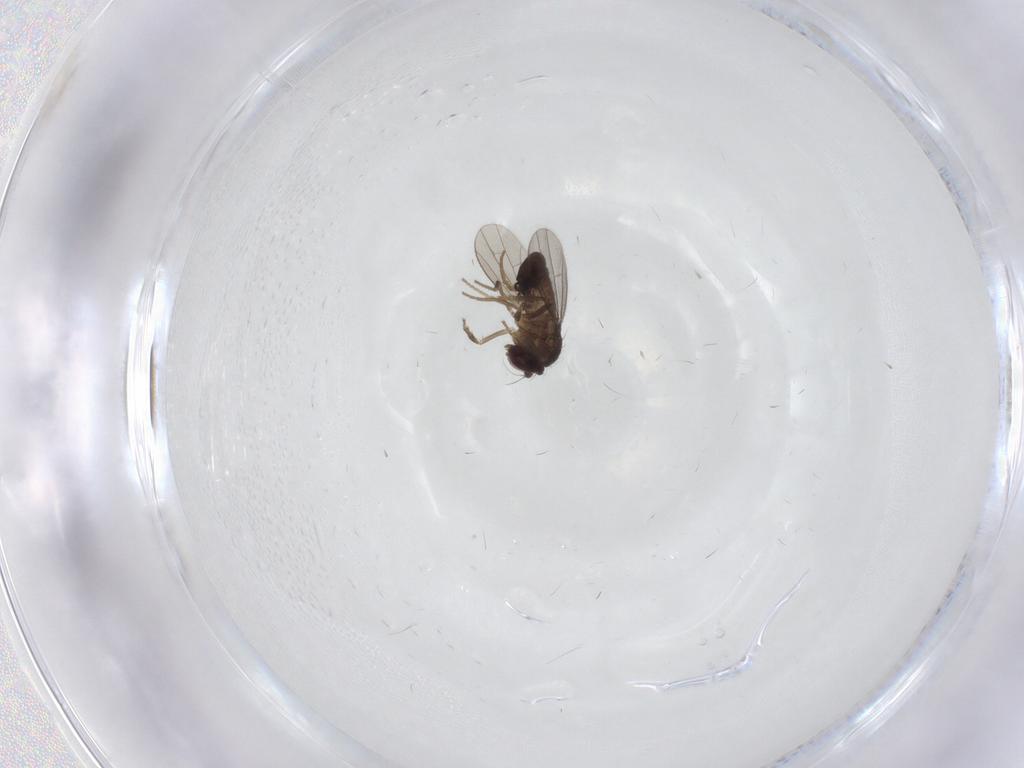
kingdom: Animalia
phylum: Arthropoda
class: Insecta
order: Diptera
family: Dolichopodidae
